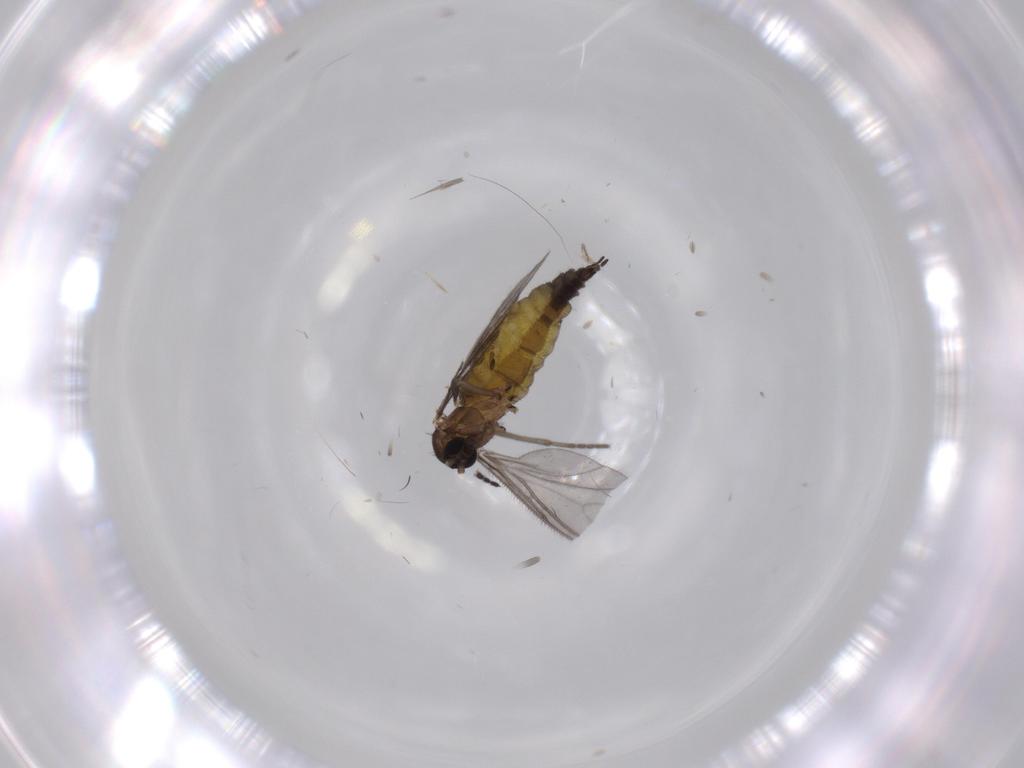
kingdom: Animalia
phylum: Arthropoda
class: Insecta
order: Diptera
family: Sciaridae
